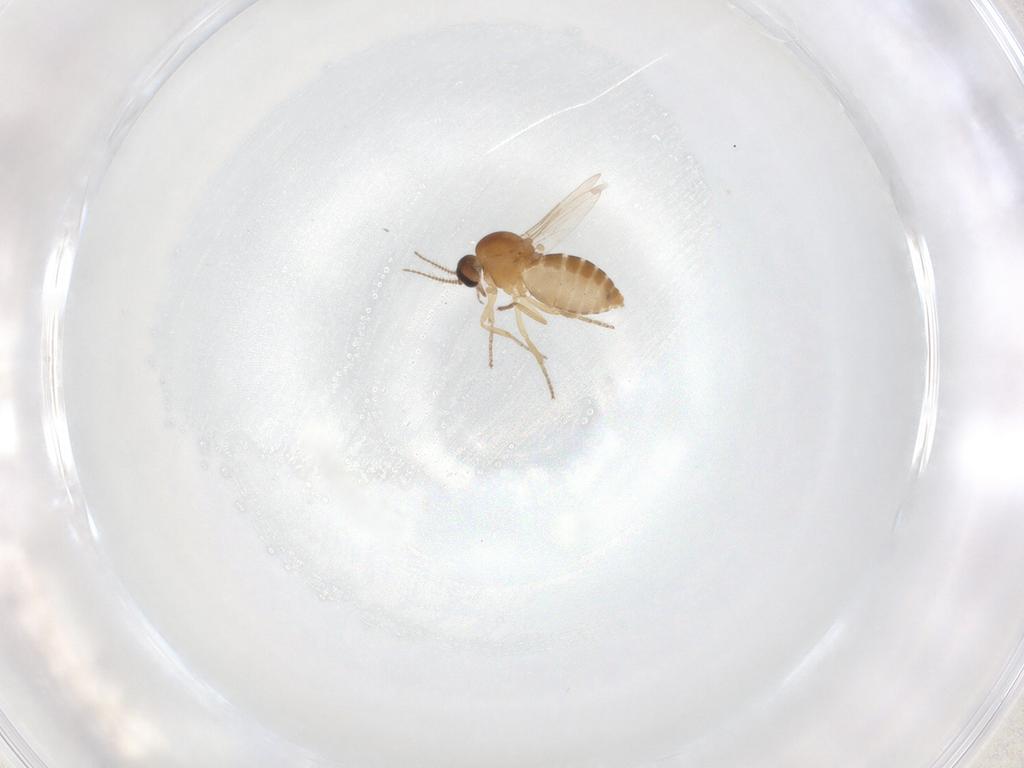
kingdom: Animalia
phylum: Arthropoda
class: Insecta
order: Diptera
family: Ceratopogonidae
